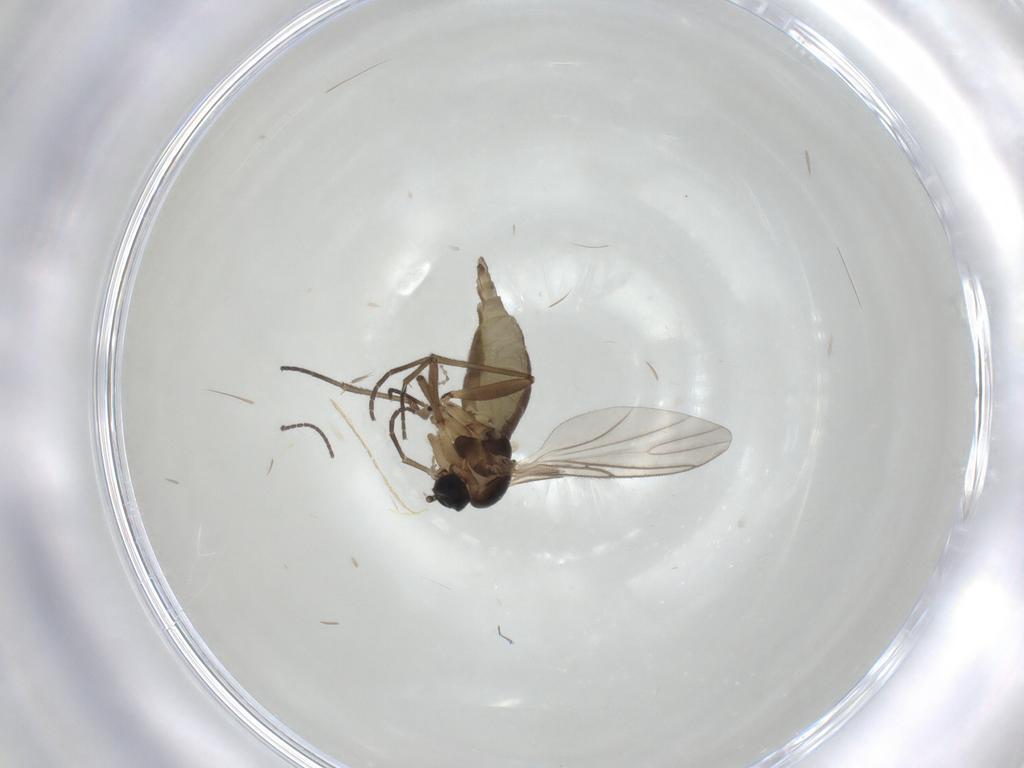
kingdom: Animalia
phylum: Arthropoda
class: Insecta
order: Diptera
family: Cecidomyiidae
